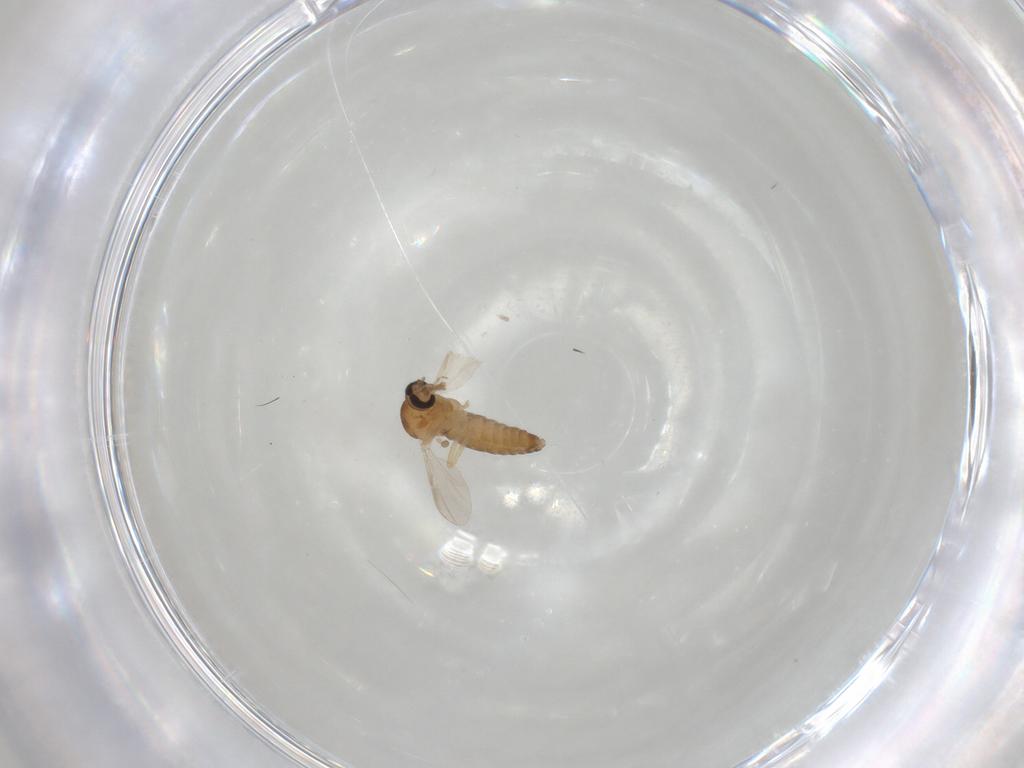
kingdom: Animalia
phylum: Arthropoda
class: Insecta
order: Diptera
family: Ceratopogonidae
